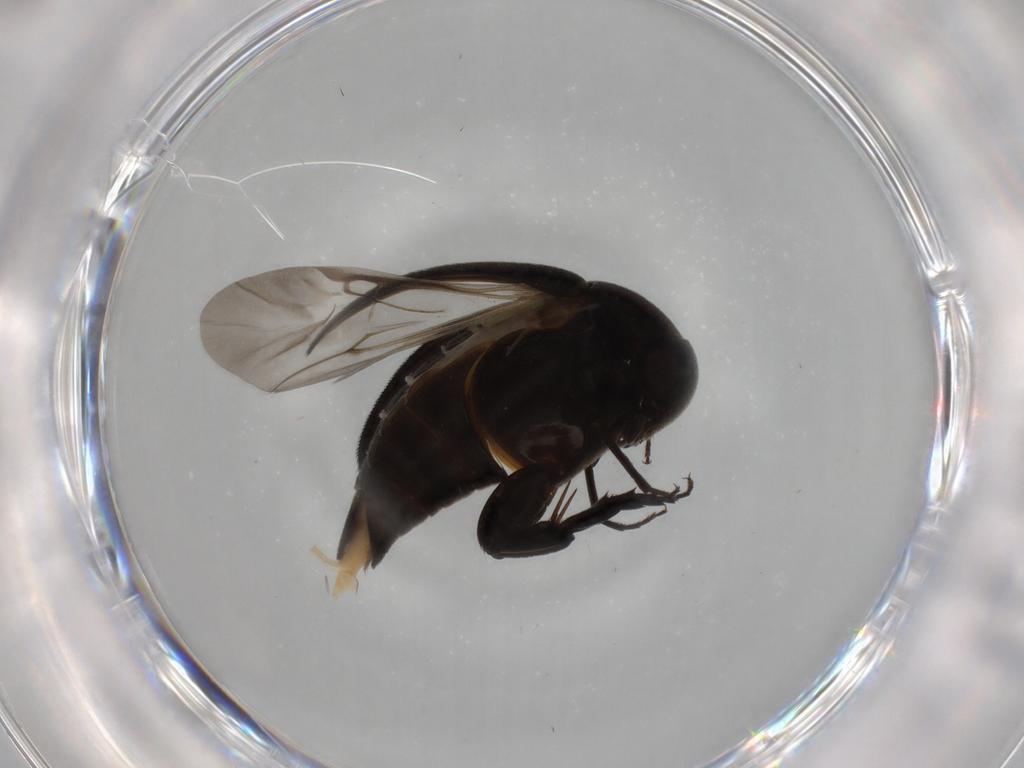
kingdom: Animalia
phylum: Arthropoda
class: Insecta
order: Coleoptera
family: Mordellidae
